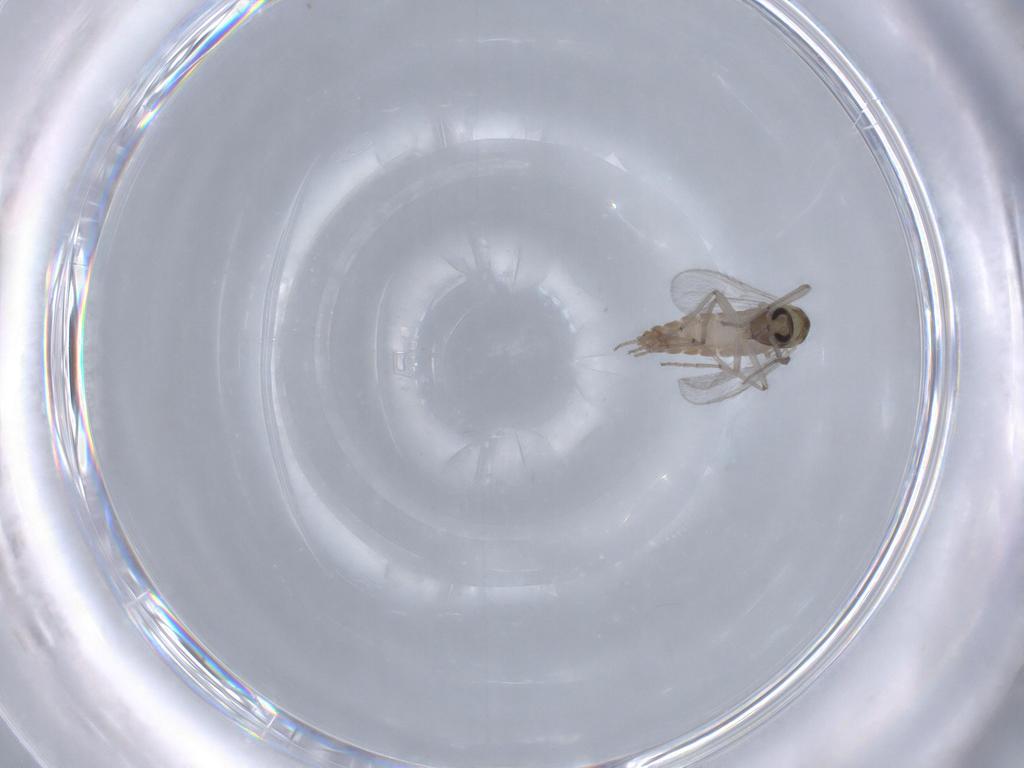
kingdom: Animalia
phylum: Arthropoda
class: Insecta
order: Diptera
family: Chironomidae
